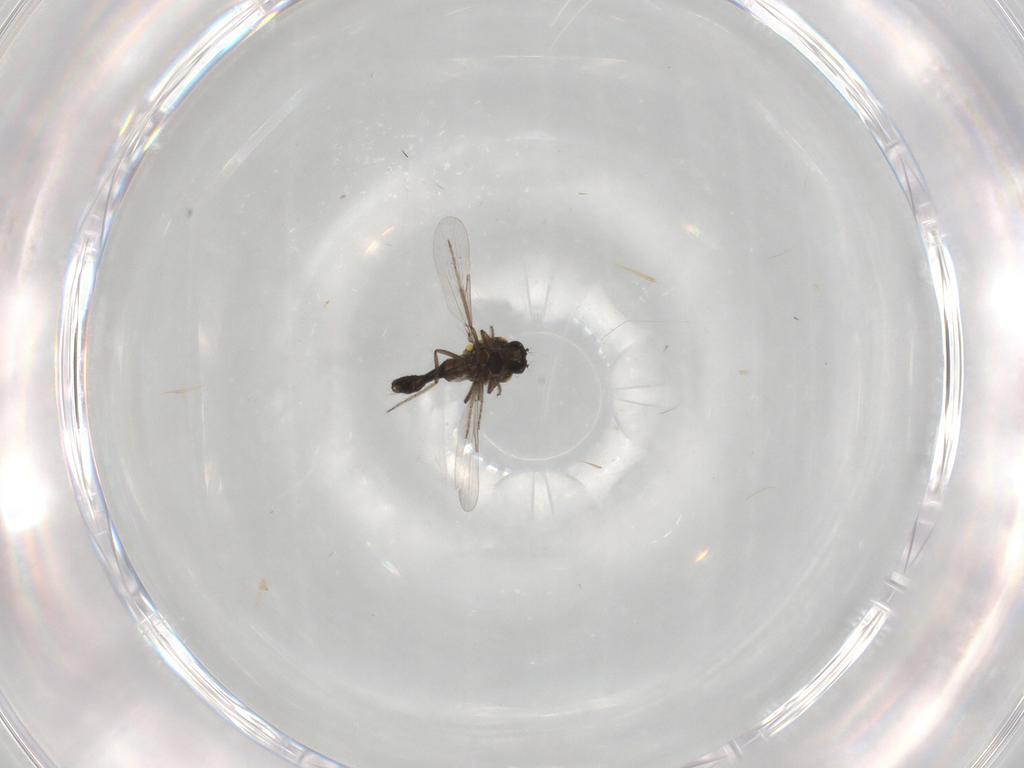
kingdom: Animalia
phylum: Arthropoda
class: Insecta
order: Diptera
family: Ceratopogonidae
